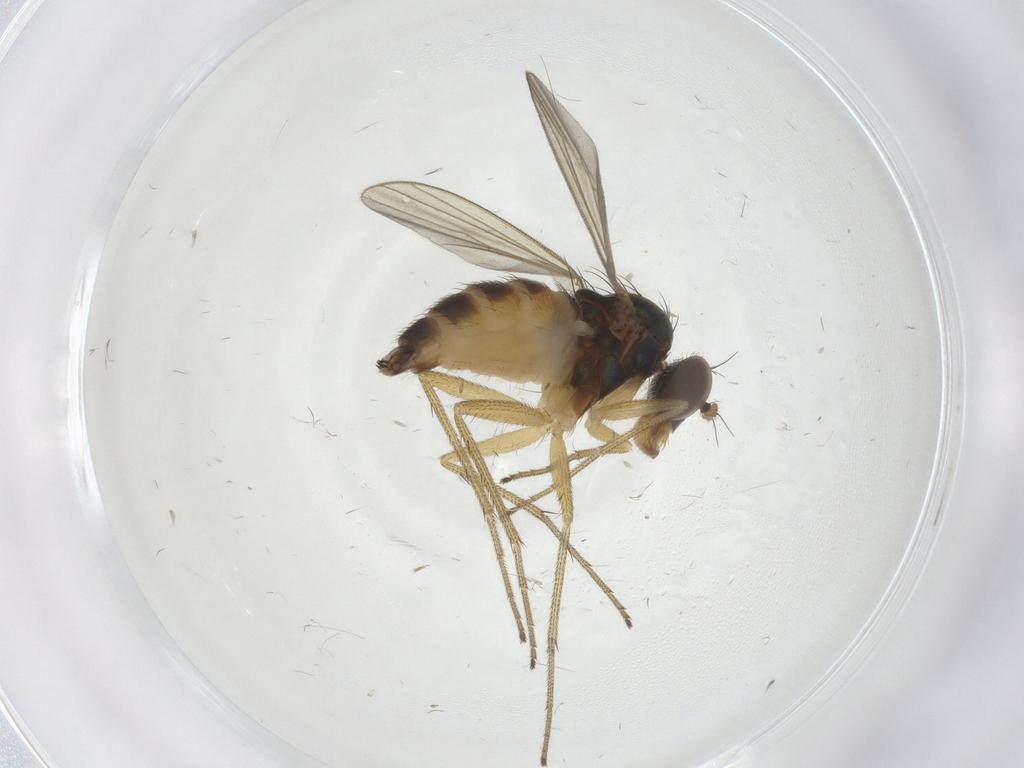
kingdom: Animalia
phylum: Arthropoda
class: Insecta
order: Diptera
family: Dolichopodidae
